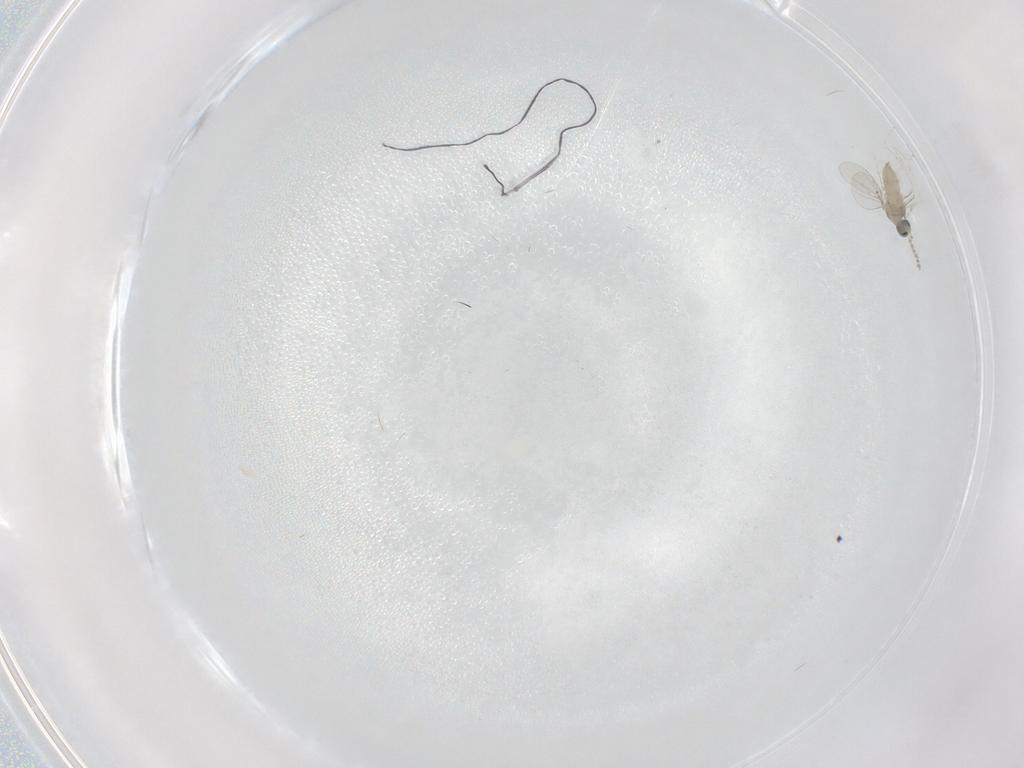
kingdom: Animalia
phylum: Arthropoda
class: Insecta
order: Diptera
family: Cecidomyiidae
